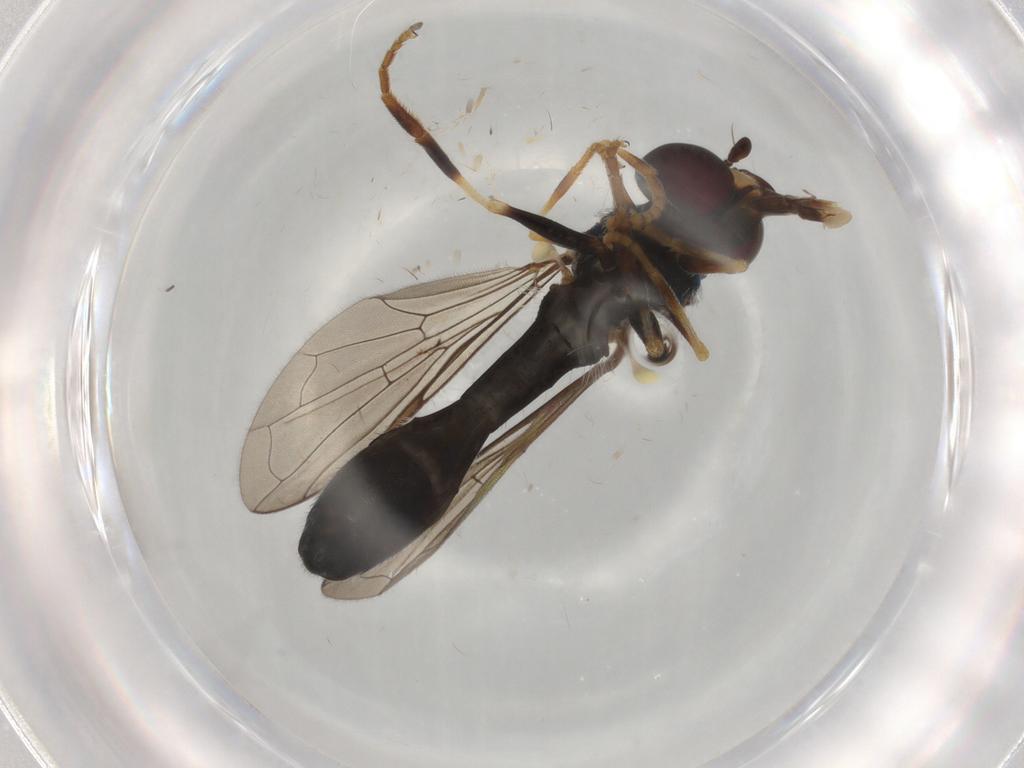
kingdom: Animalia
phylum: Arthropoda
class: Insecta
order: Diptera
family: Syrphidae
